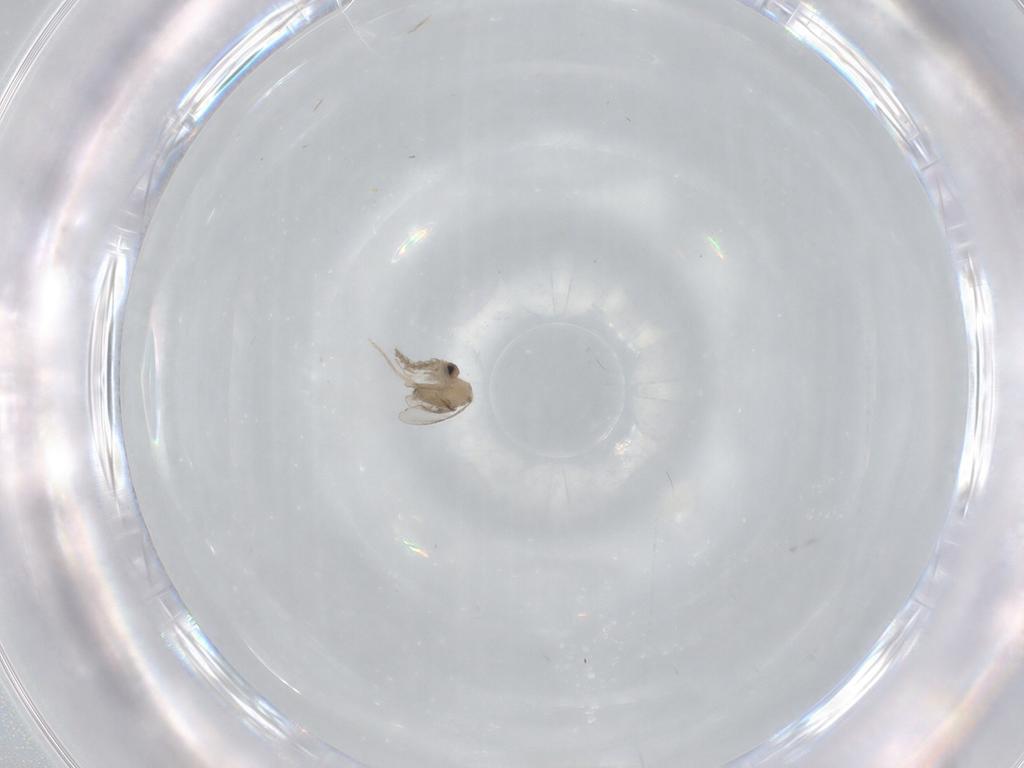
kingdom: Animalia
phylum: Arthropoda
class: Insecta
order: Diptera
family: Cecidomyiidae
